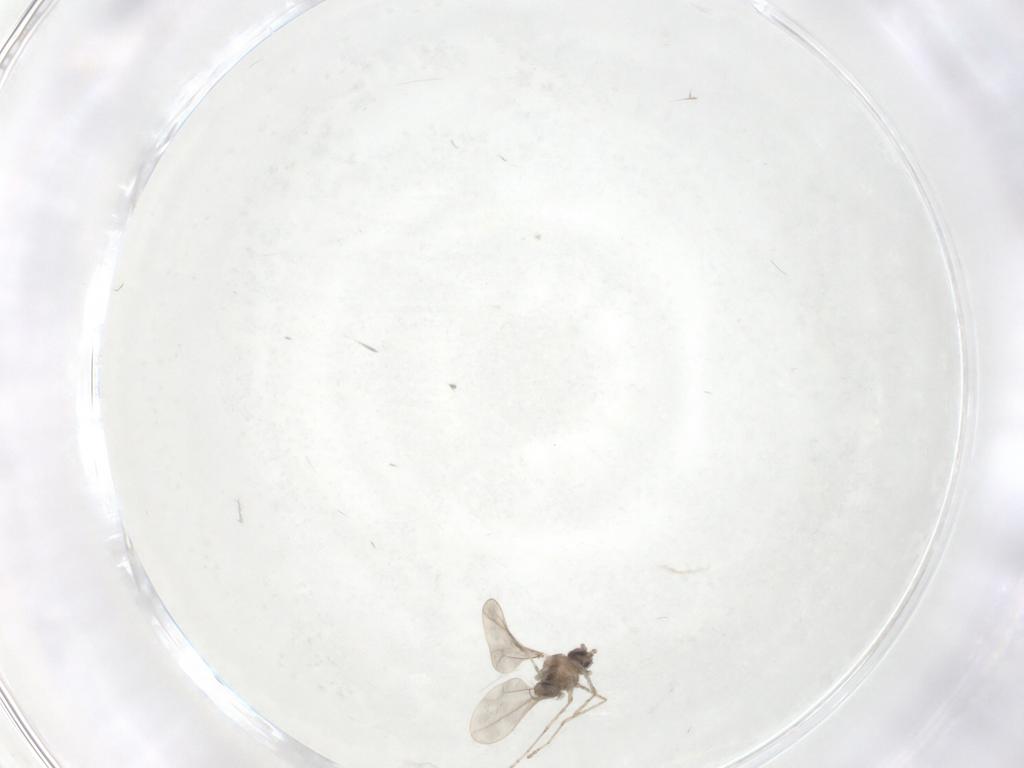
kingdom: Animalia
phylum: Arthropoda
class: Insecta
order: Diptera
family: Cecidomyiidae
